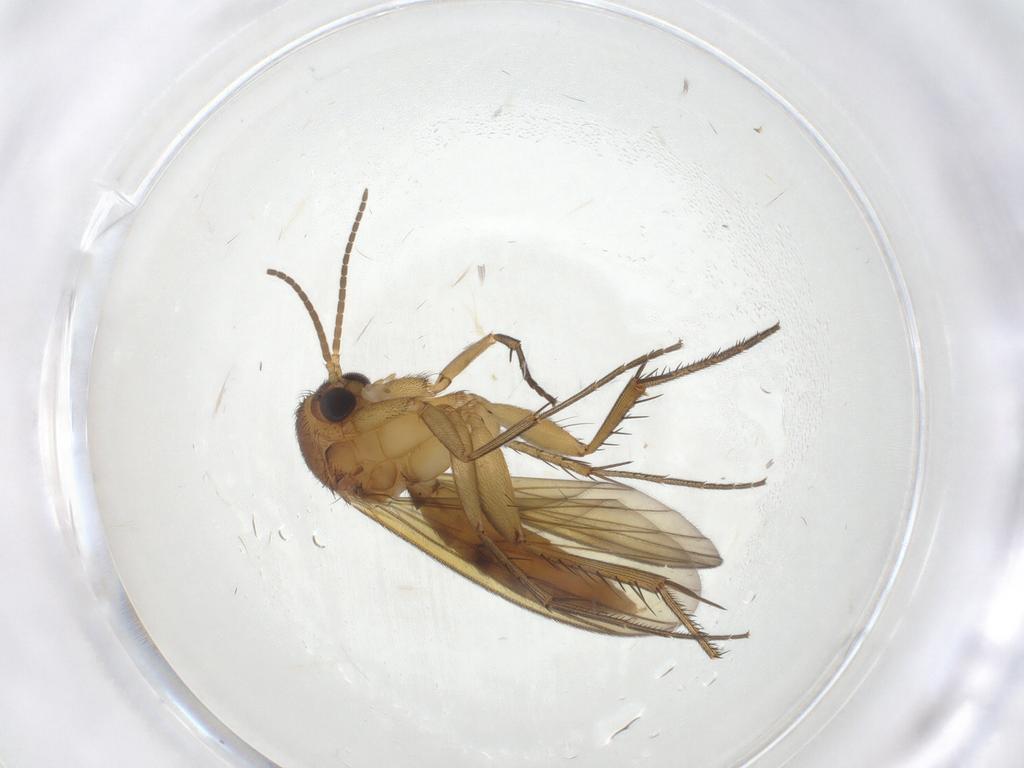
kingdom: Animalia
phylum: Arthropoda
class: Insecta
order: Diptera
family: Mycetophilidae
